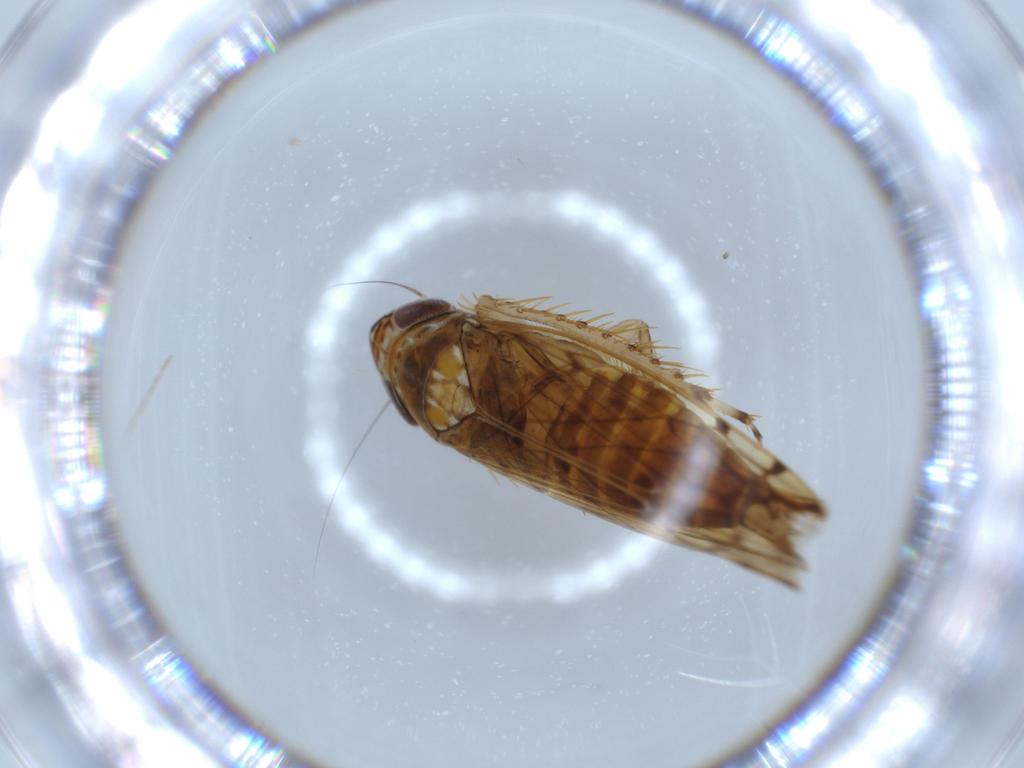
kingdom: Animalia
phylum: Arthropoda
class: Insecta
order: Hemiptera
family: Cicadellidae
